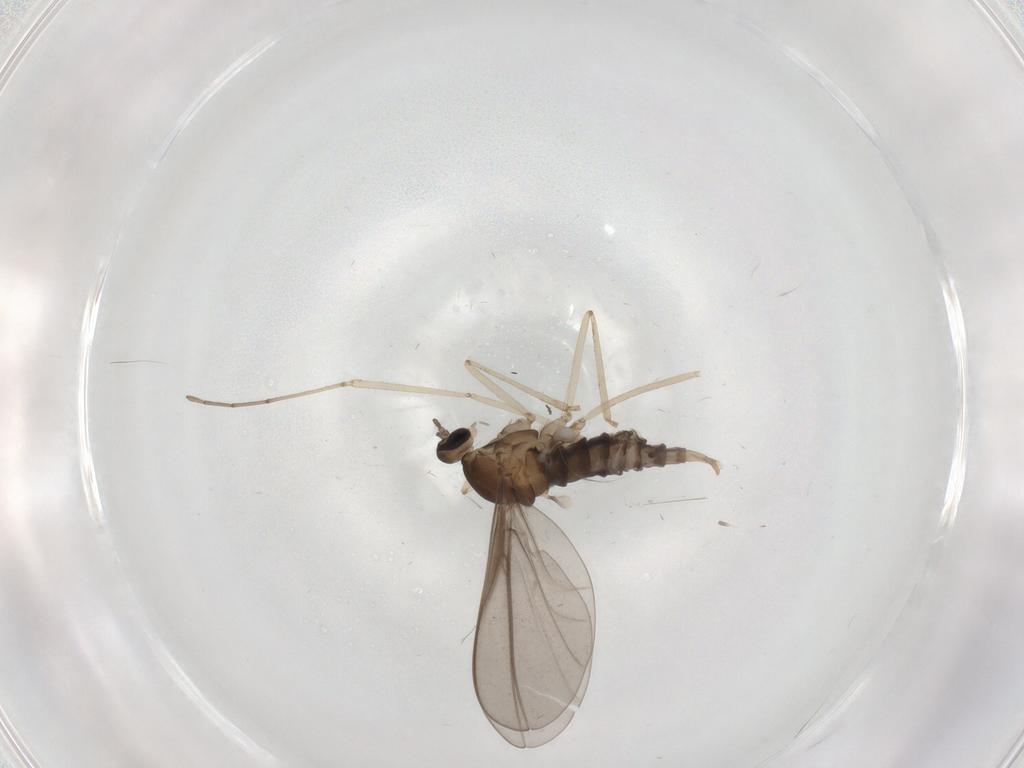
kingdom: Animalia
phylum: Arthropoda
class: Insecta
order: Diptera
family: Cecidomyiidae
